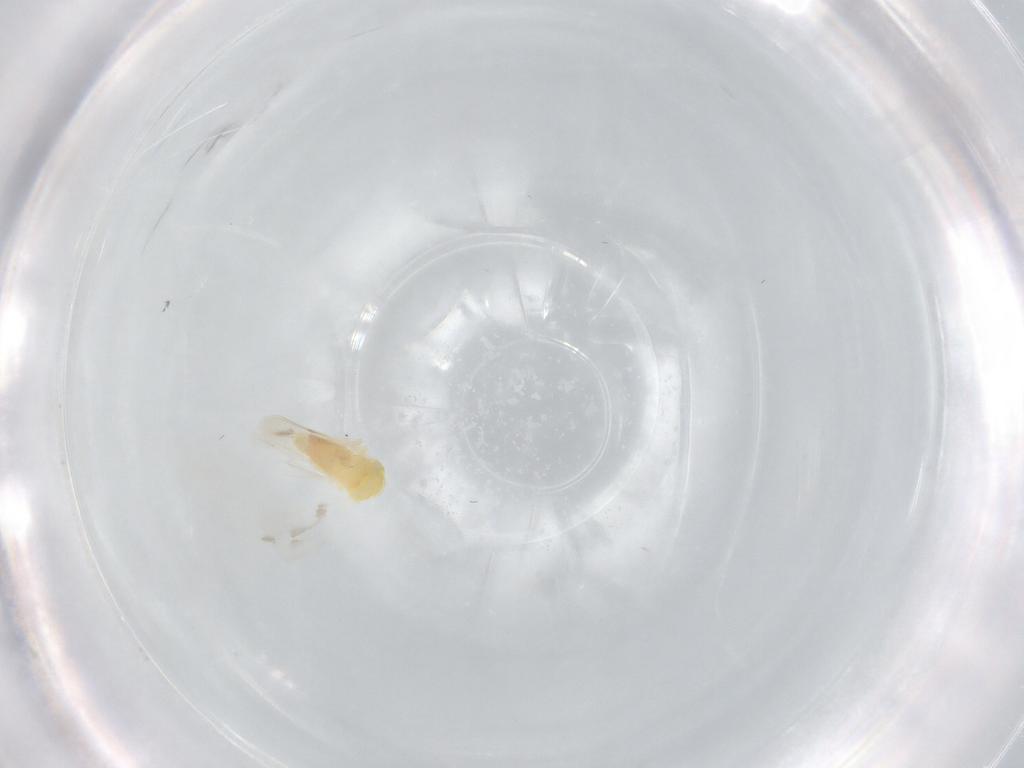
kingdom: Animalia
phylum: Arthropoda
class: Insecta
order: Hemiptera
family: Aleyrodidae
